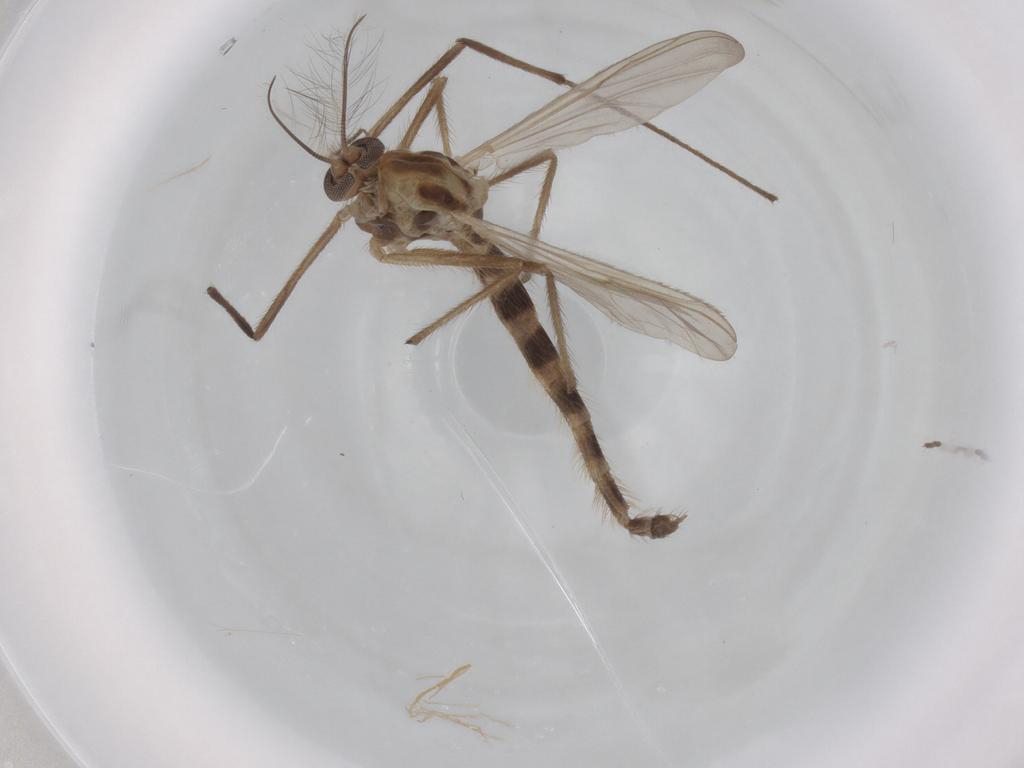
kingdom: Animalia
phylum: Arthropoda
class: Insecta
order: Diptera
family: Chironomidae
